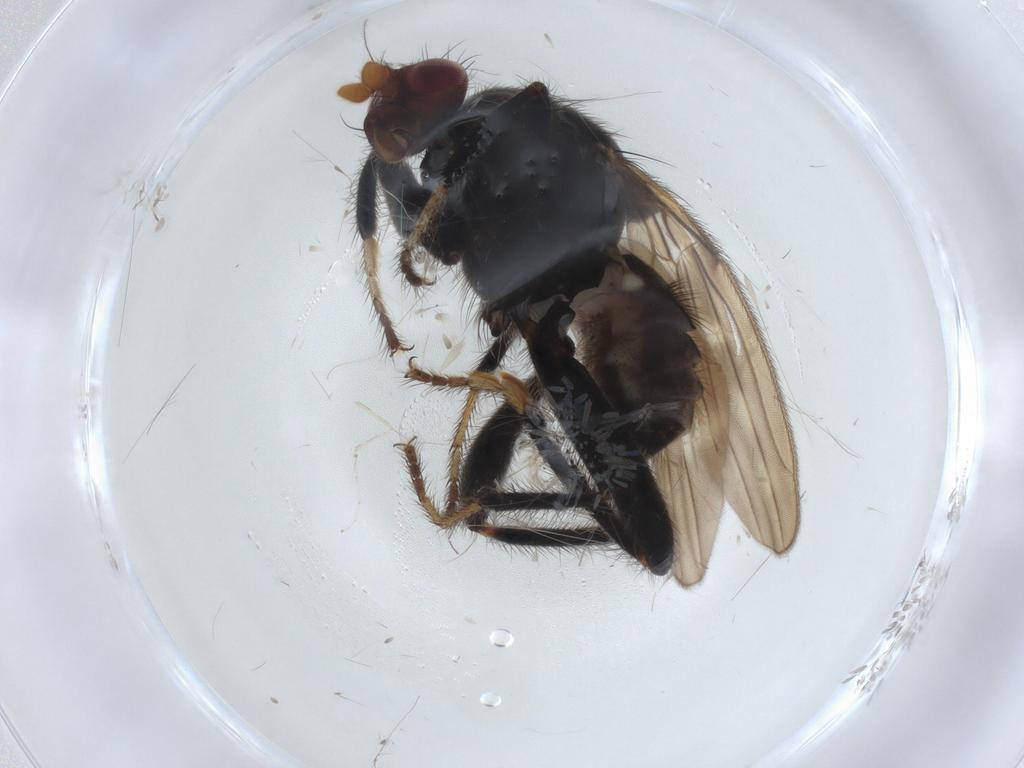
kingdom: Animalia
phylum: Arthropoda
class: Insecta
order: Diptera
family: Sphaeroceridae
